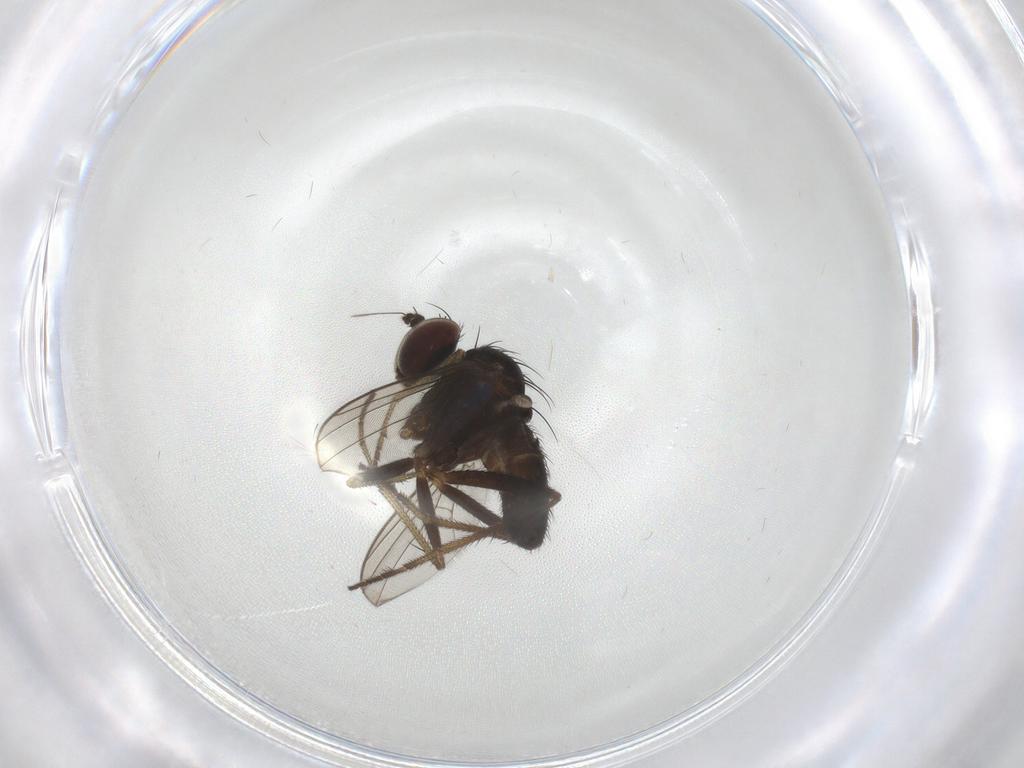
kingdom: Animalia
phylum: Arthropoda
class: Insecta
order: Diptera
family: Dolichopodidae
